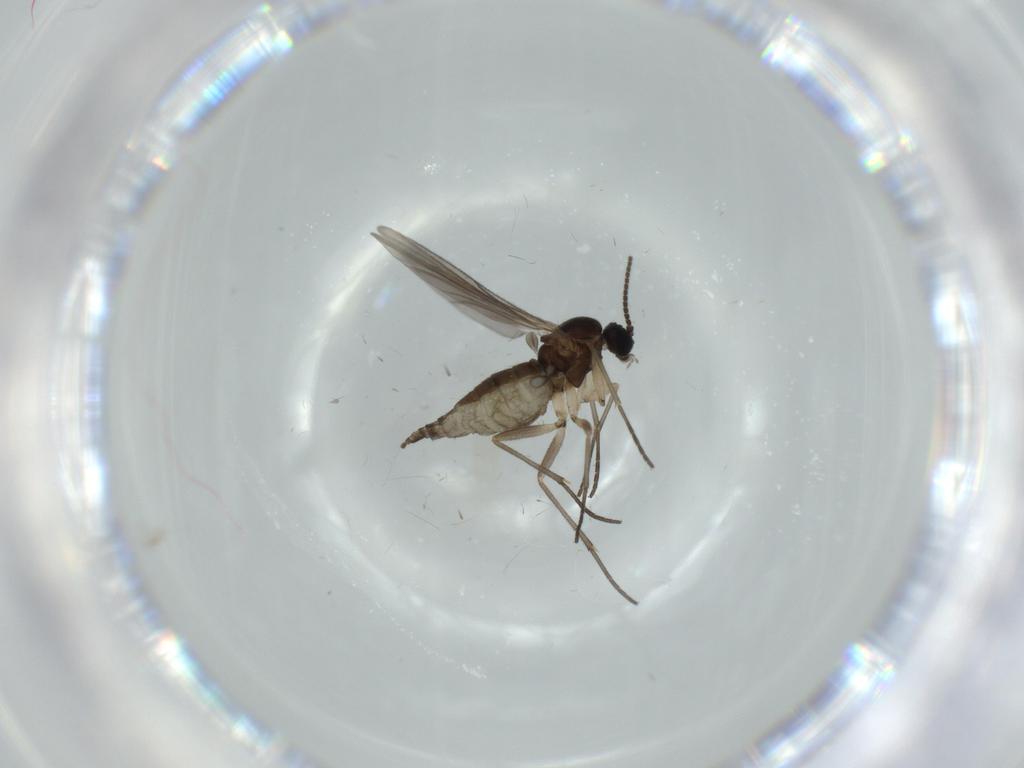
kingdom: Animalia
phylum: Arthropoda
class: Insecta
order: Diptera
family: Sciaridae
